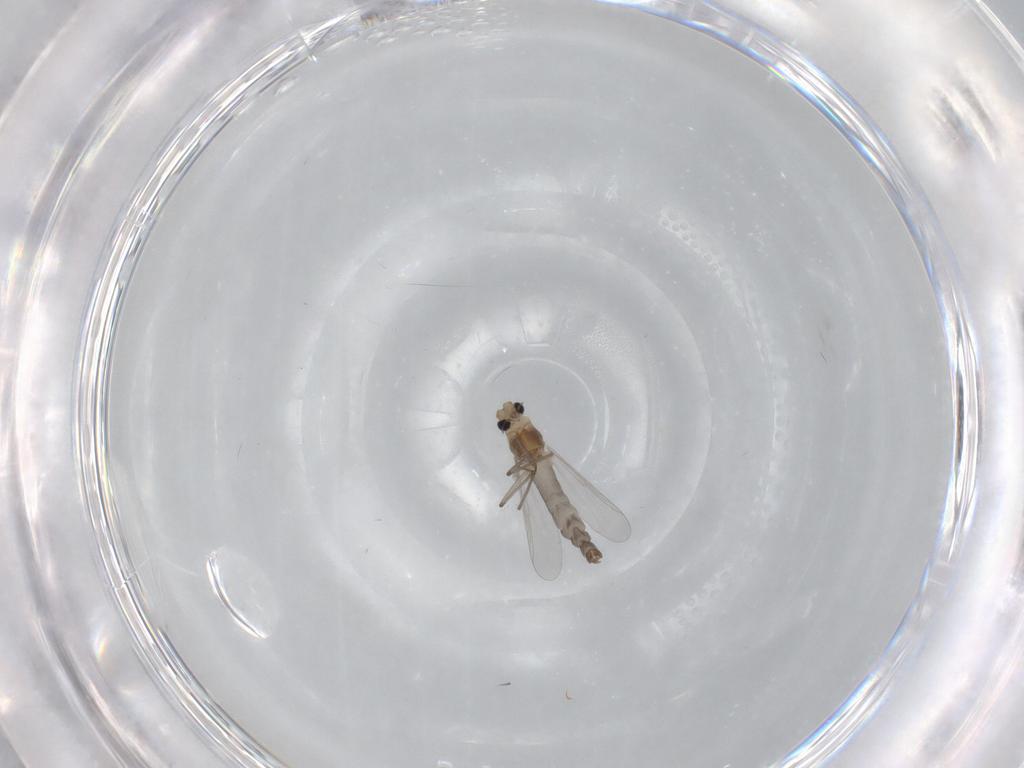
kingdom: Animalia
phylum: Arthropoda
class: Insecta
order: Diptera
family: Chironomidae
